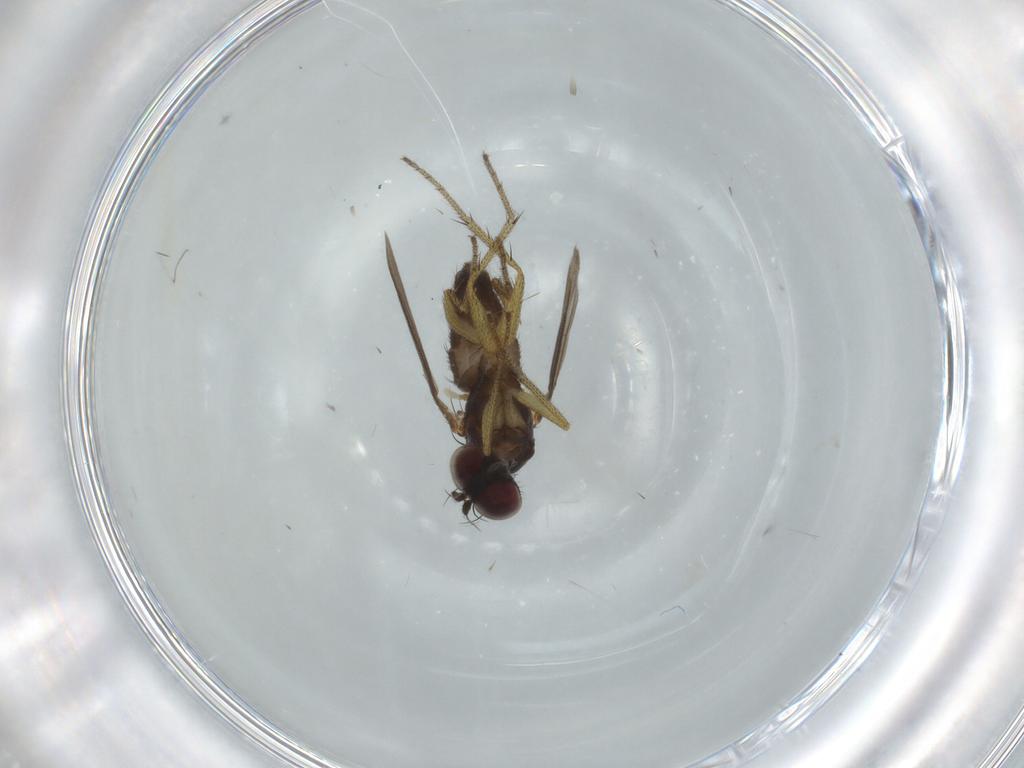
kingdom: Animalia
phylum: Arthropoda
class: Insecta
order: Diptera
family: Dolichopodidae
